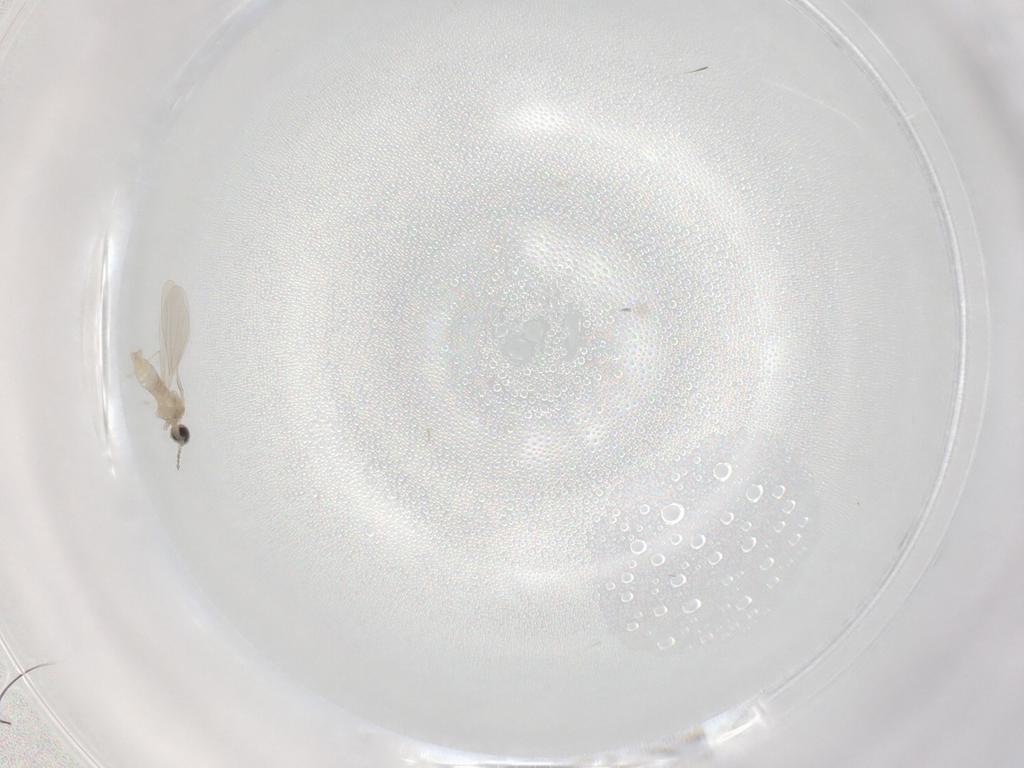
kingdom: Animalia
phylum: Arthropoda
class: Insecta
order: Diptera
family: Cecidomyiidae
